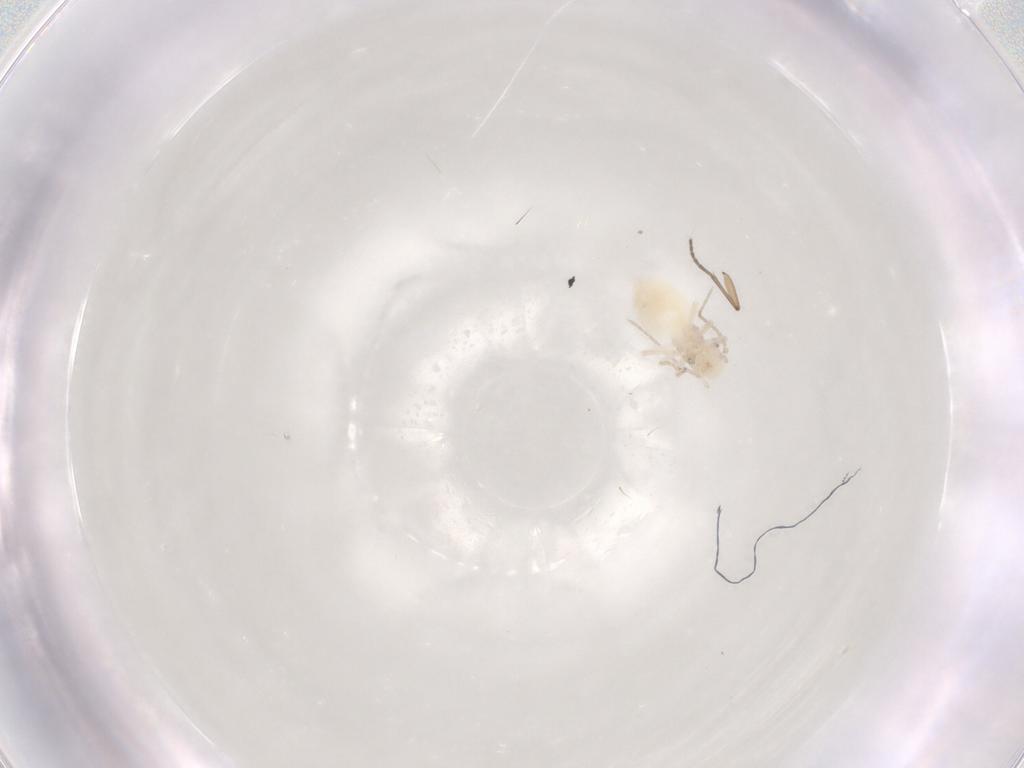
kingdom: Animalia
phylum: Arthropoda
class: Arachnida
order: Sarcoptiformes
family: Scheloribatidae
